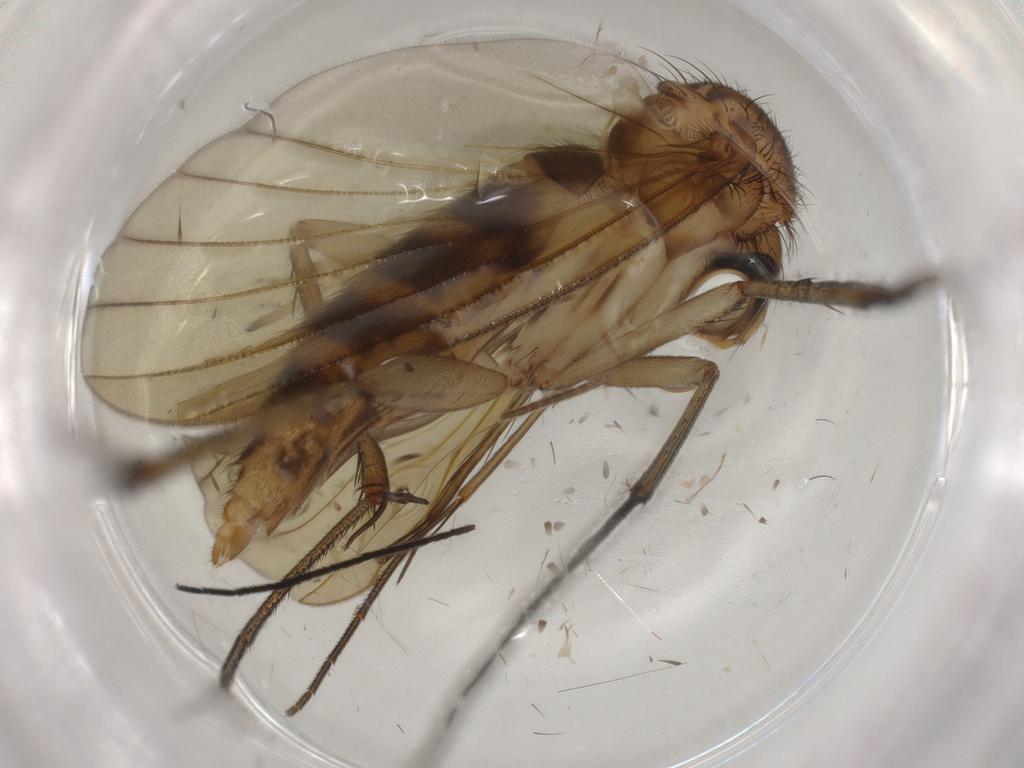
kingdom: Animalia
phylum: Arthropoda
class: Insecta
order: Diptera
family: Sciaridae
